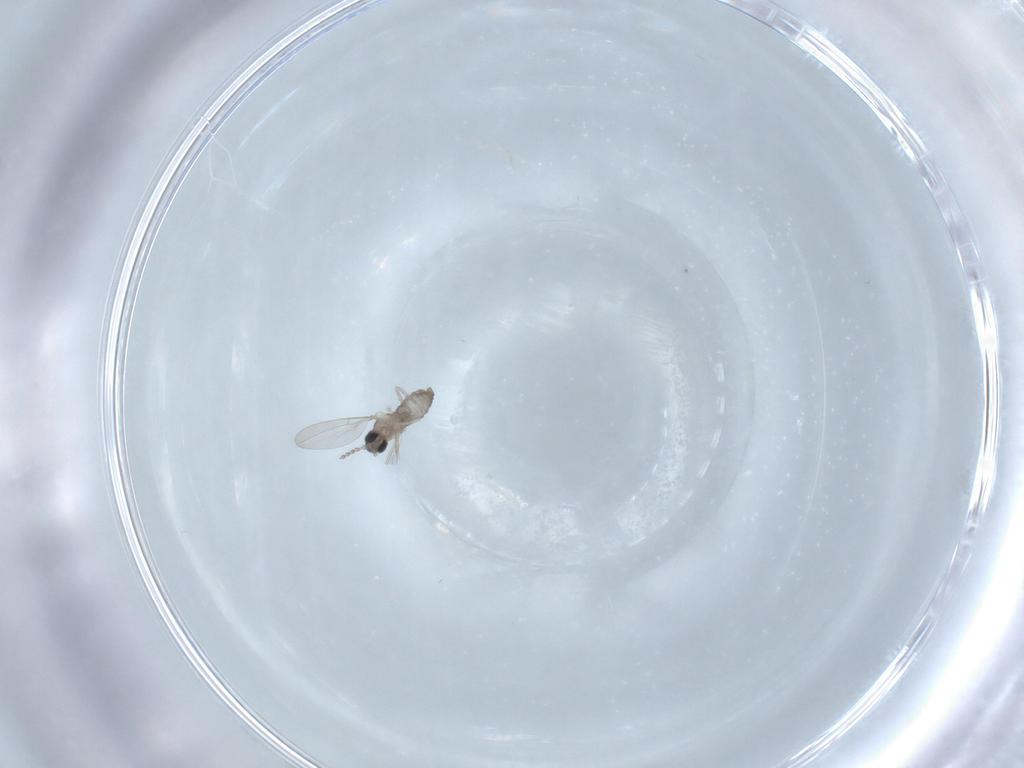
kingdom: Animalia
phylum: Arthropoda
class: Insecta
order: Diptera
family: Cecidomyiidae
